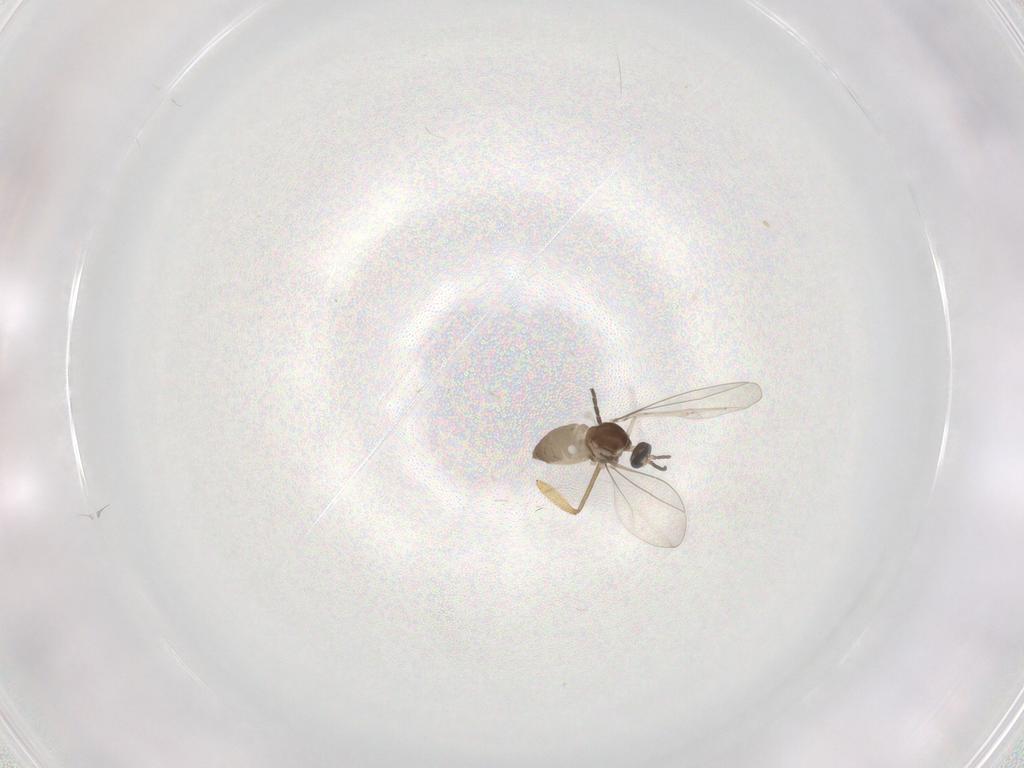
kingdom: Animalia
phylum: Arthropoda
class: Insecta
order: Diptera
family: Cecidomyiidae
